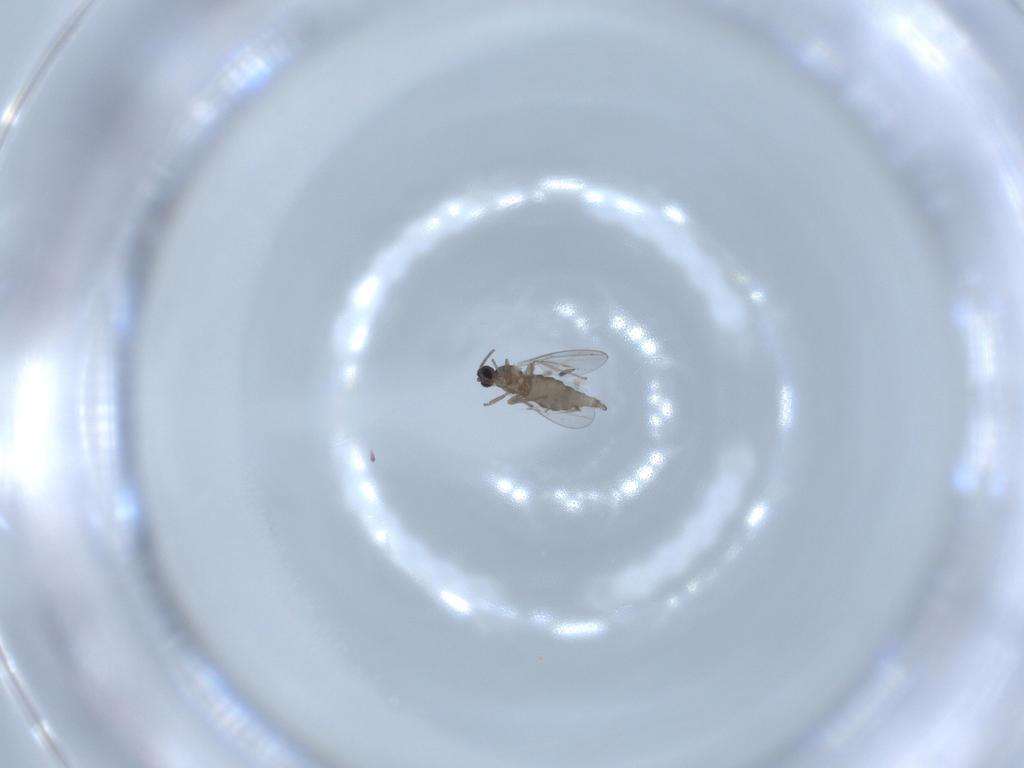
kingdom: Animalia
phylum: Arthropoda
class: Insecta
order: Diptera
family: Cecidomyiidae
